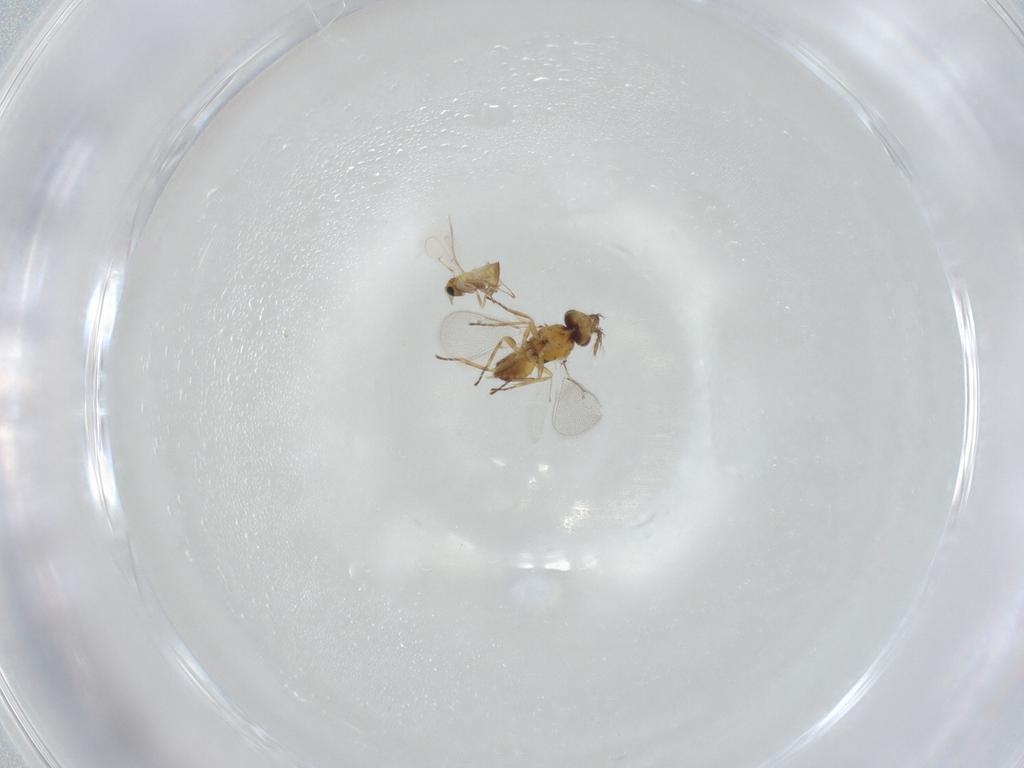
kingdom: Animalia
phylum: Arthropoda
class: Insecta
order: Hymenoptera
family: Eulophidae
